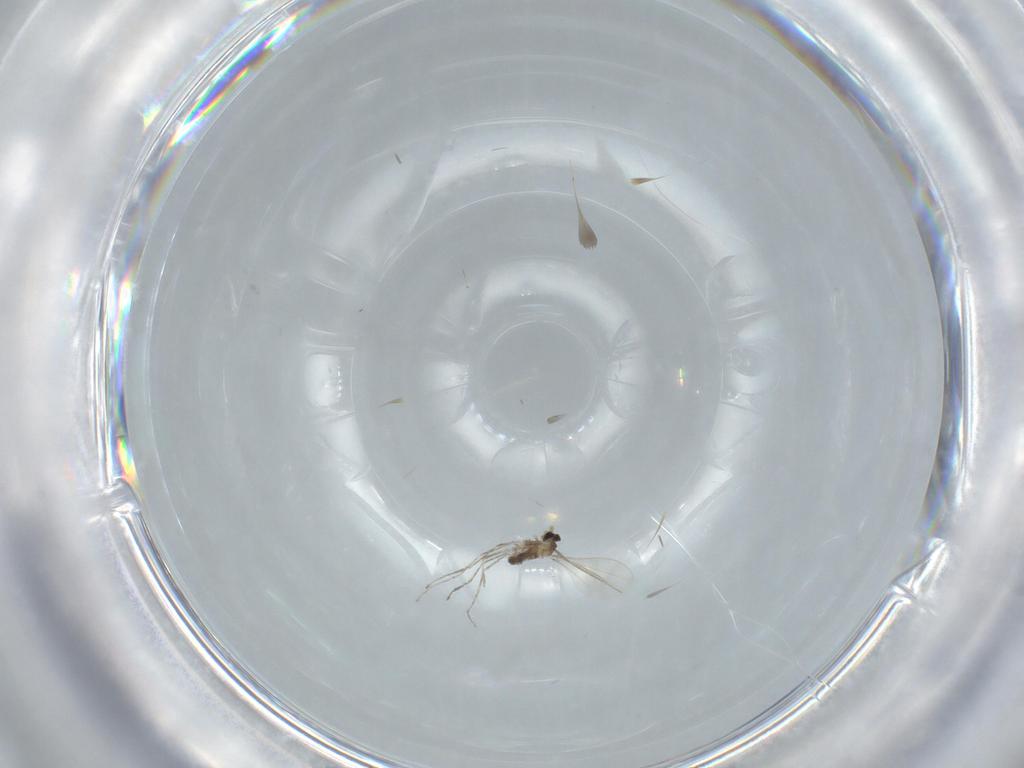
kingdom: Animalia
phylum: Arthropoda
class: Insecta
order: Diptera
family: Cecidomyiidae
